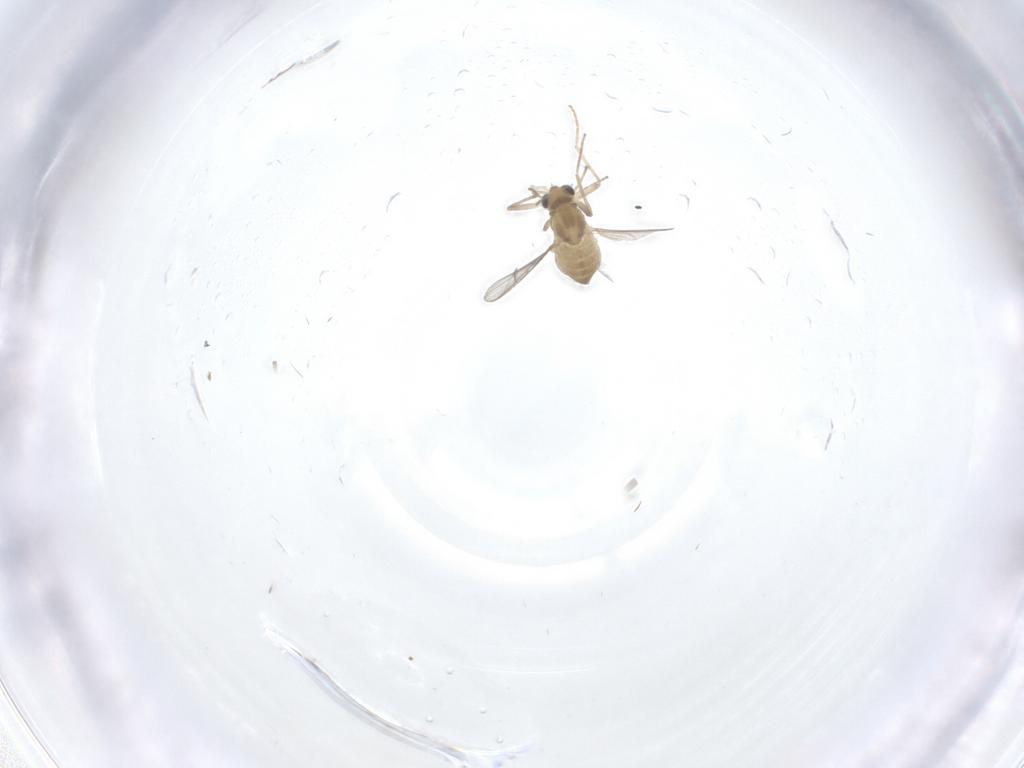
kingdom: Animalia
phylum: Arthropoda
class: Insecta
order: Diptera
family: Chironomidae
